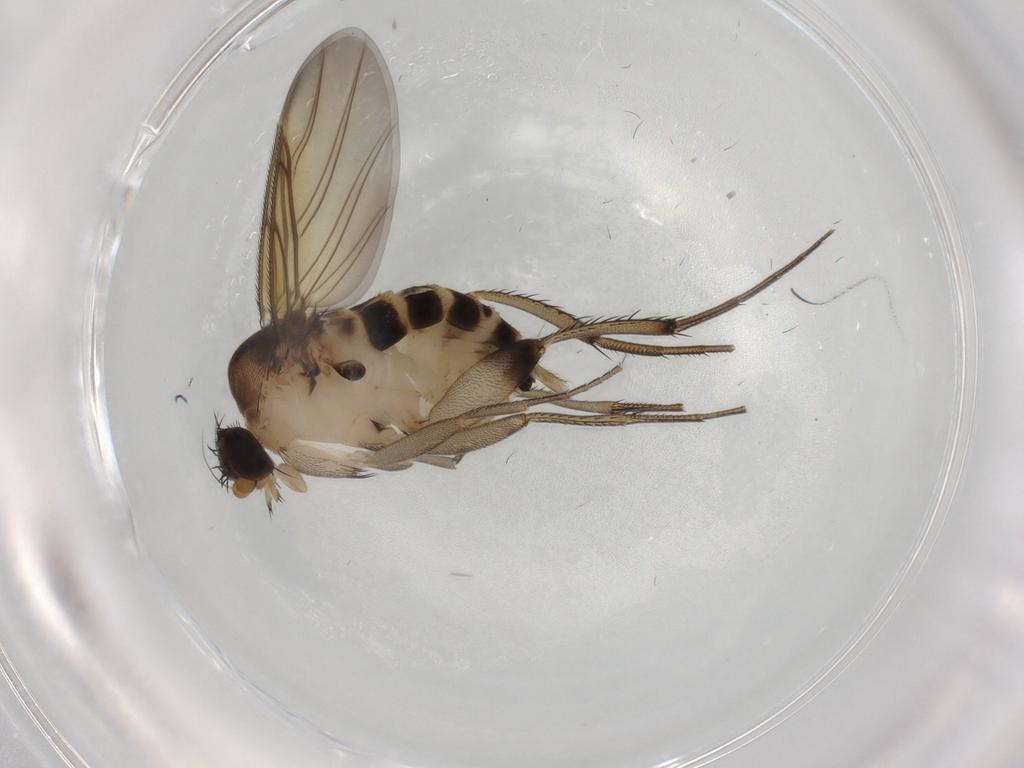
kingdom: Animalia
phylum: Arthropoda
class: Insecta
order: Diptera
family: Phoridae
